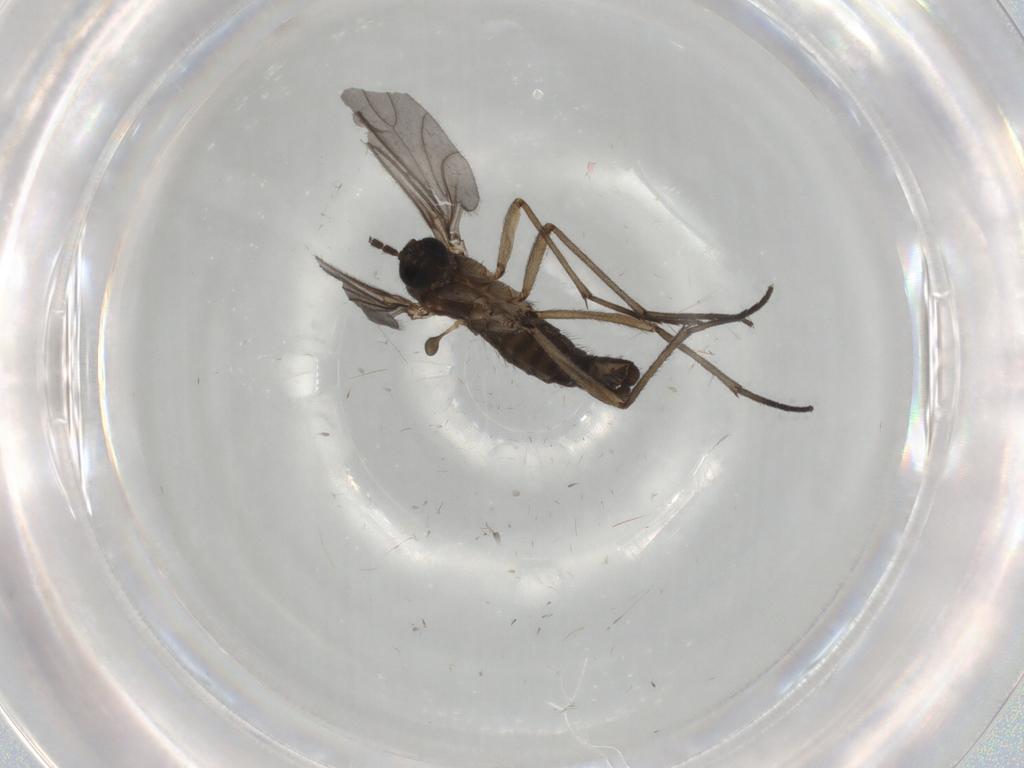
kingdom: Animalia
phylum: Arthropoda
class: Insecta
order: Diptera
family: Sciaridae
